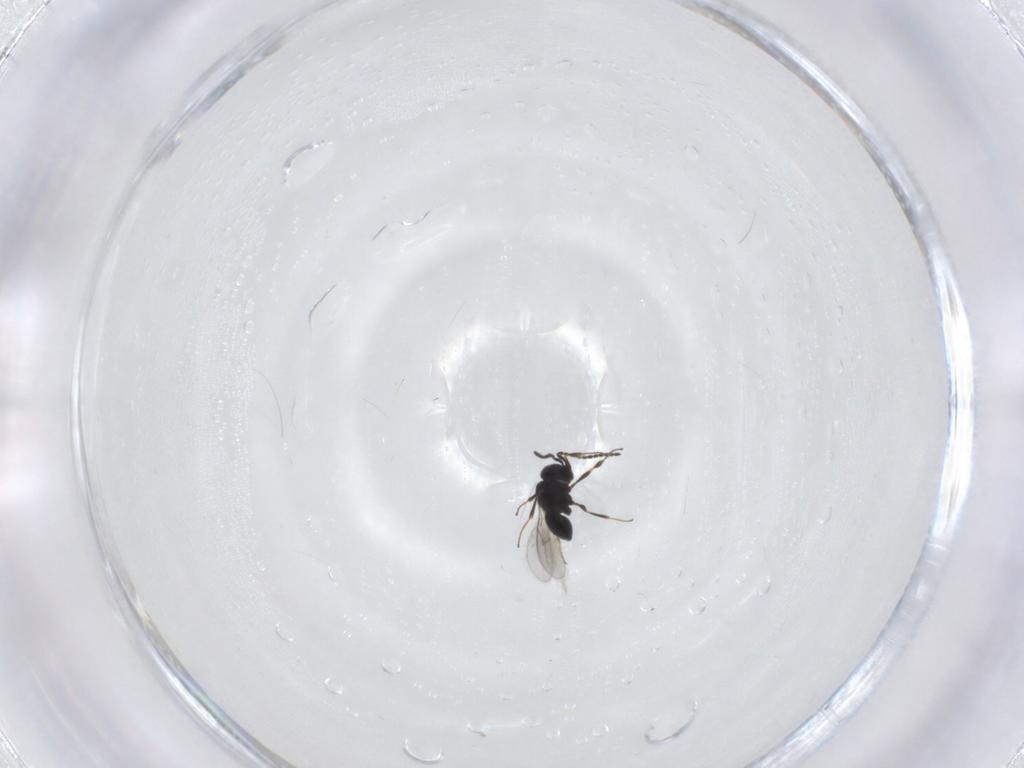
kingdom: Animalia
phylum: Arthropoda
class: Insecta
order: Hymenoptera
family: Scelionidae
